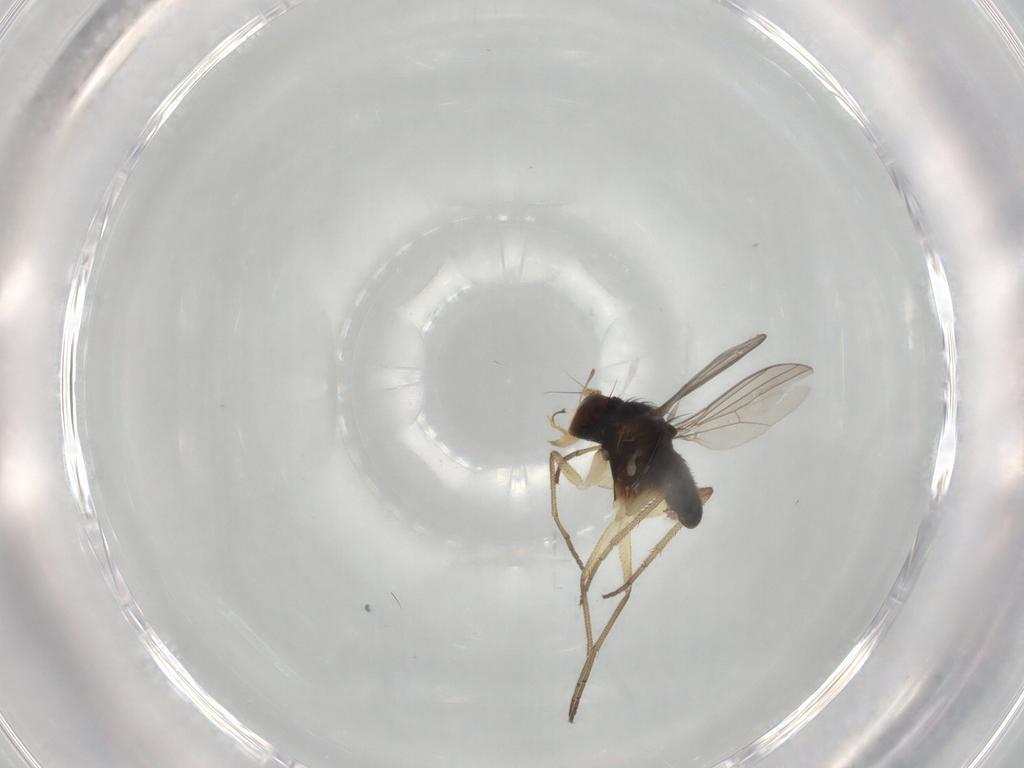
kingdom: Animalia
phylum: Arthropoda
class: Insecta
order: Diptera
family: Dolichopodidae
